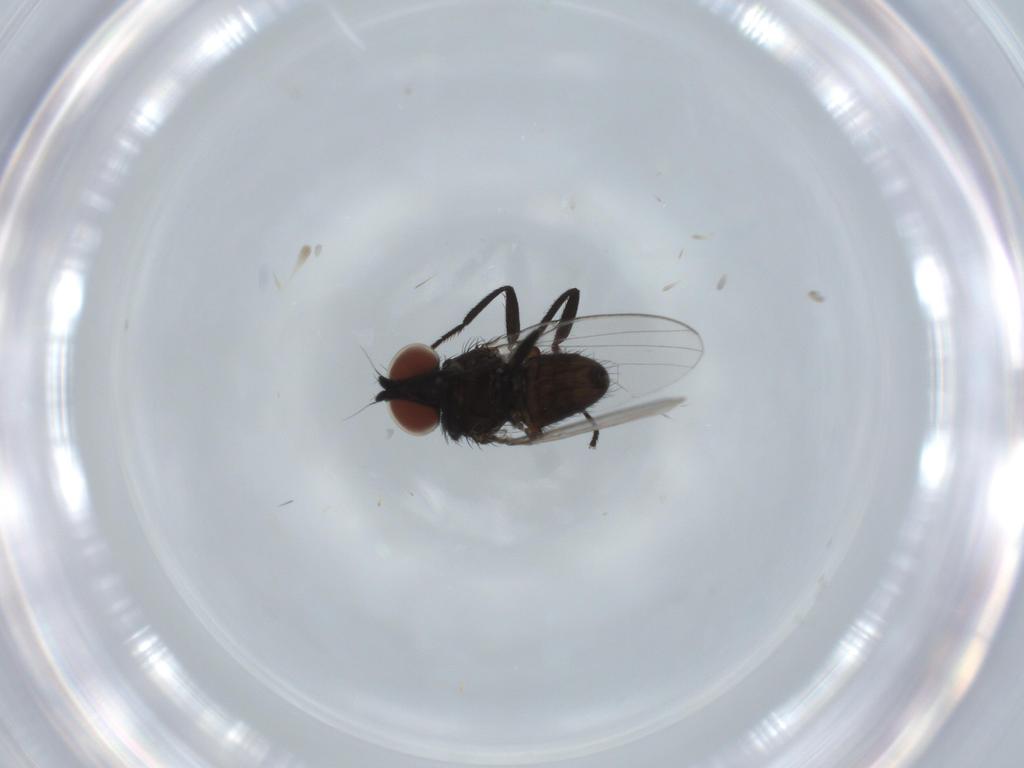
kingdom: Animalia
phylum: Arthropoda
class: Insecta
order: Diptera
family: Milichiidae
